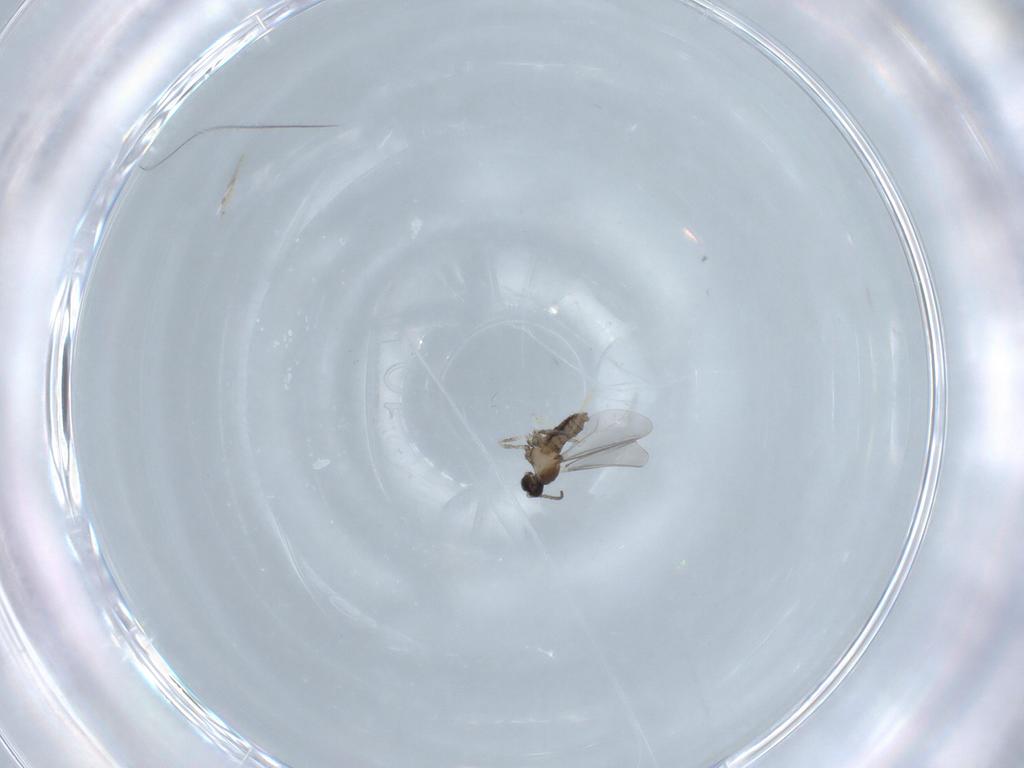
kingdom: Animalia
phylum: Arthropoda
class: Insecta
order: Diptera
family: Cecidomyiidae
